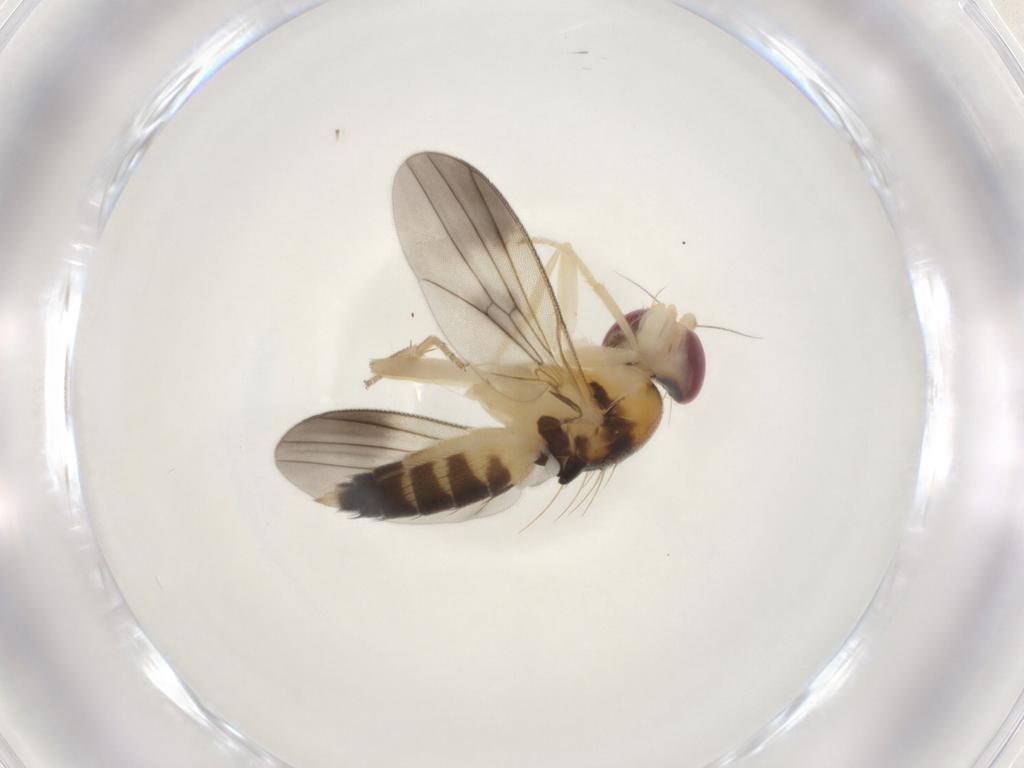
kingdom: Animalia
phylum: Arthropoda
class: Insecta
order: Diptera
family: Clusiidae
